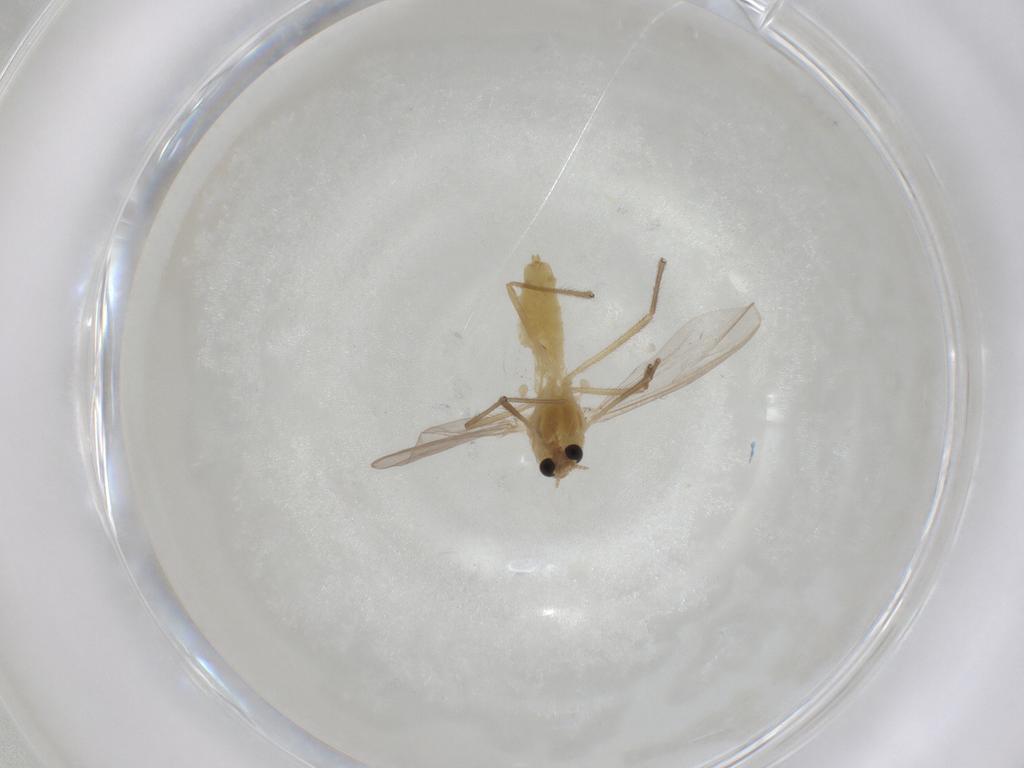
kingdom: Animalia
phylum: Arthropoda
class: Insecta
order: Diptera
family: Chironomidae
